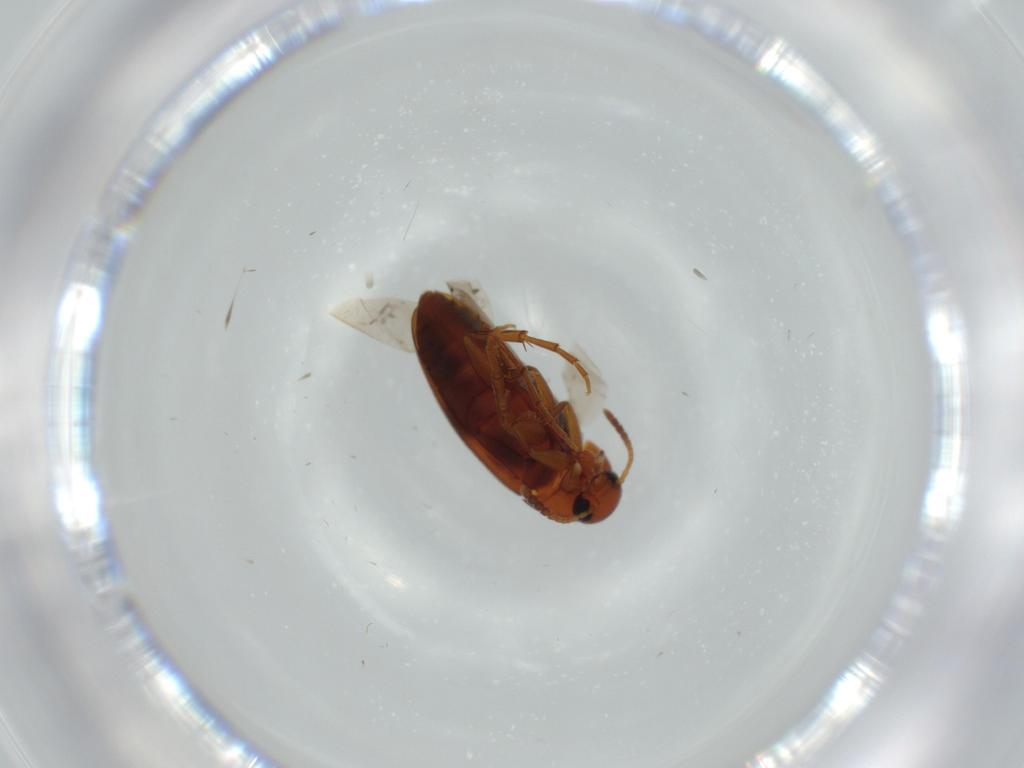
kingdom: Animalia
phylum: Arthropoda
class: Insecta
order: Coleoptera
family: Scraptiidae
